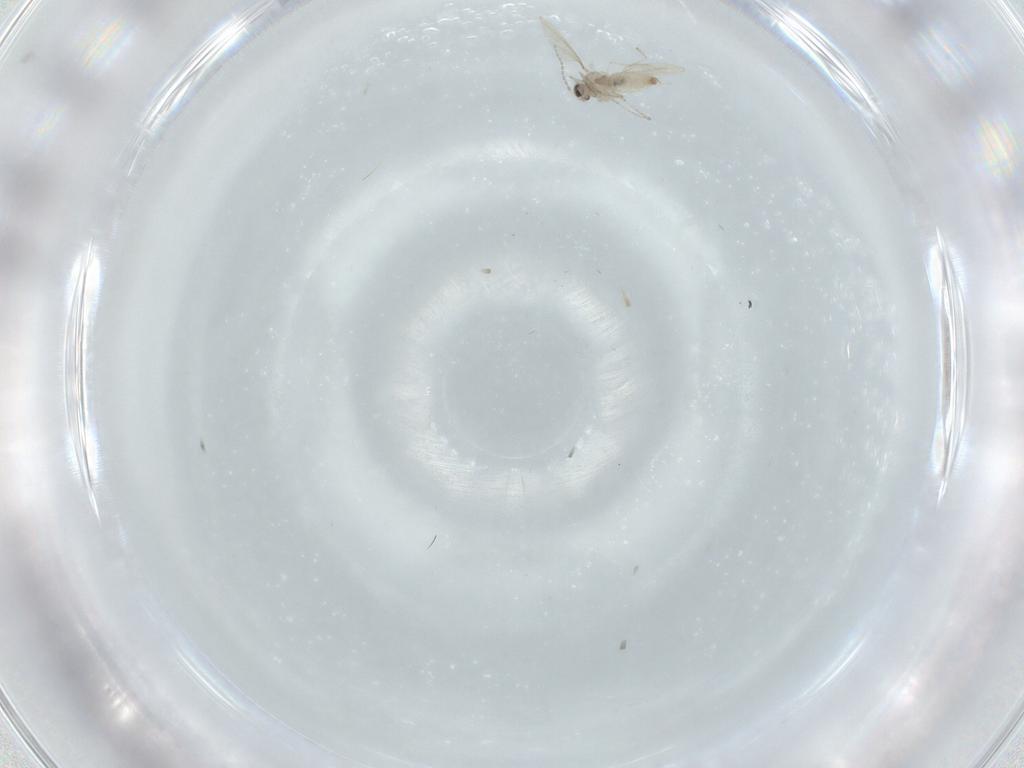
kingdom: Animalia
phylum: Arthropoda
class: Insecta
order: Diptera
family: Cecidomyiidae
